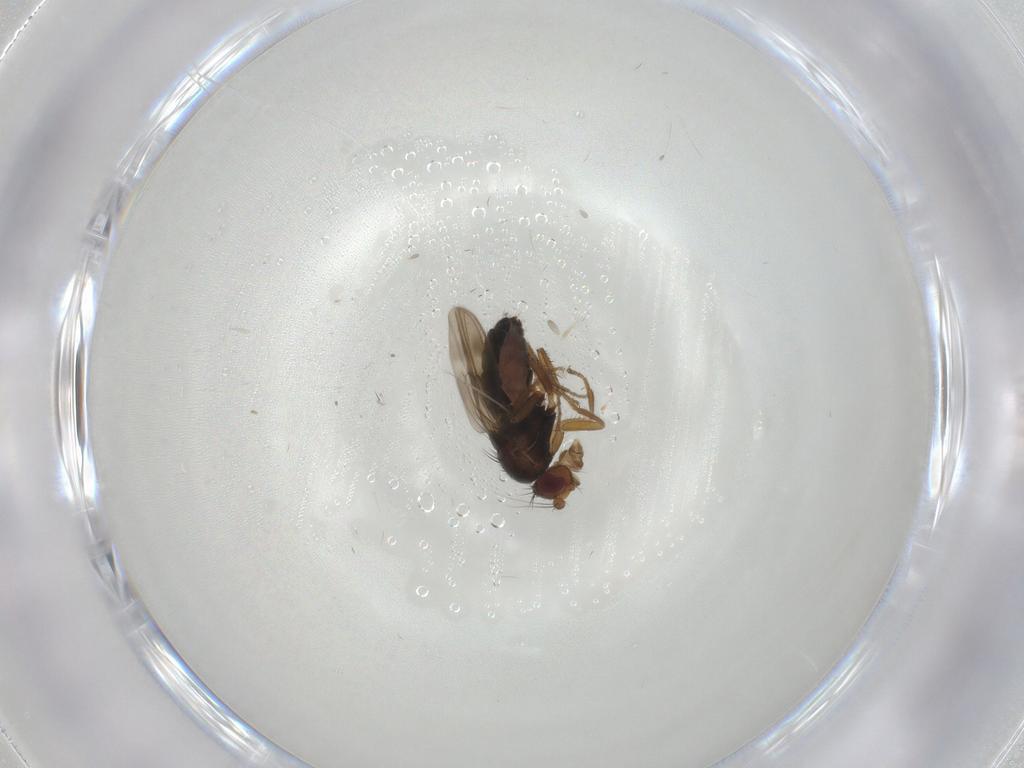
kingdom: Animalia
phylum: Arthropoda
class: Insecta
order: Diptera
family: Sphaeroceridae
